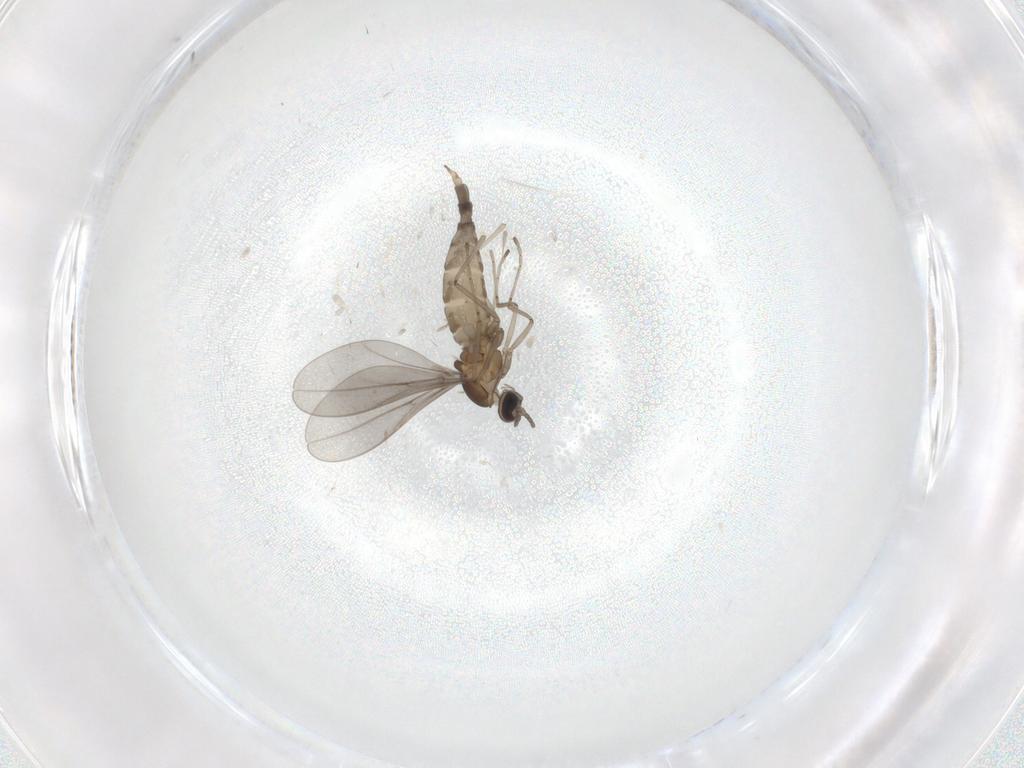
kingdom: Animalia
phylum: Arthropoda
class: Insecta
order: Diptera
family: Cecidomyiidae
